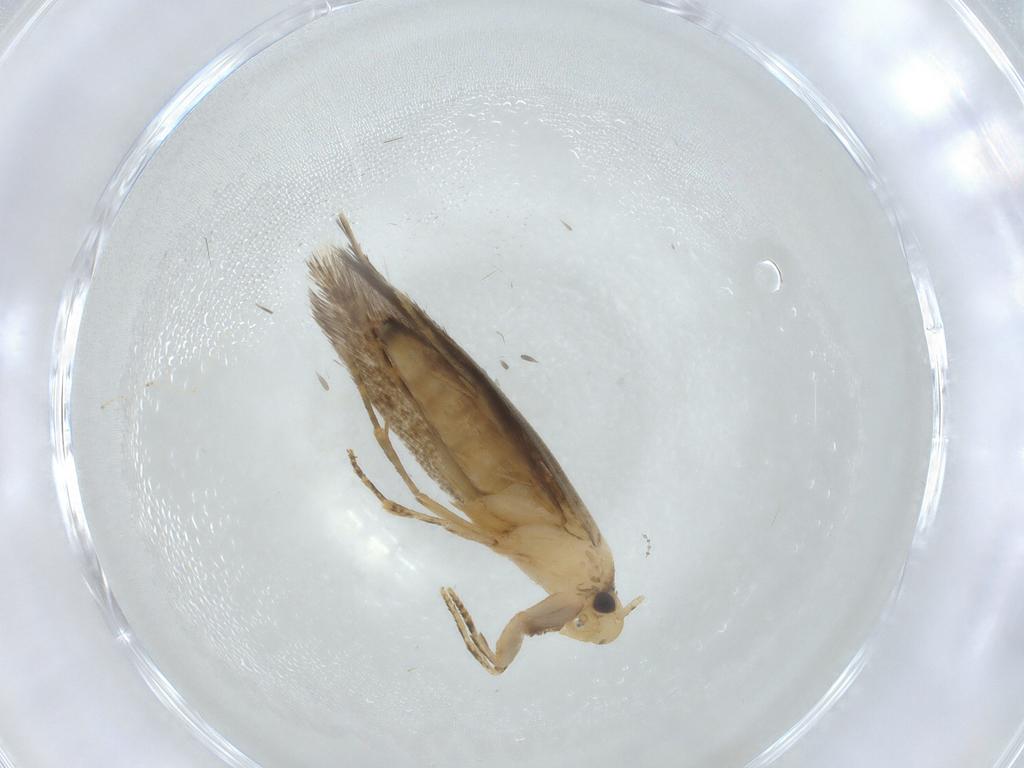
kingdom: Animalia
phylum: Arthropoda
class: Insecta
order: Lepidoptera
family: Tineidae
